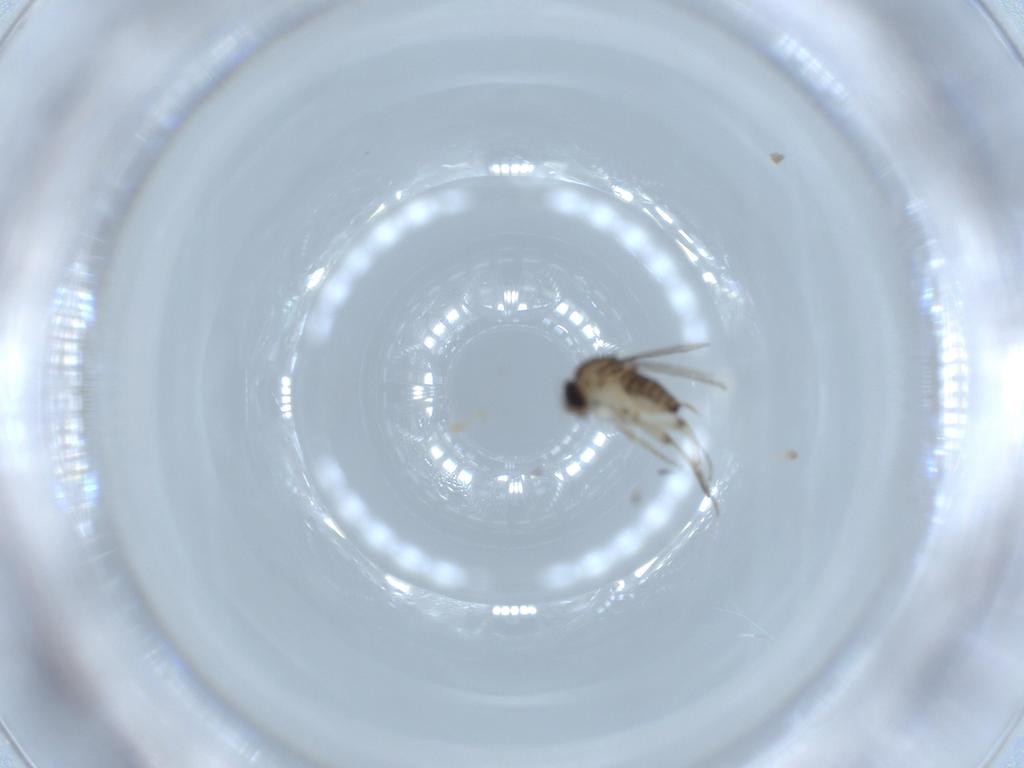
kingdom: Animalia
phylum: Arthropoda
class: Insecta
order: Diptera
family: Phoridae
